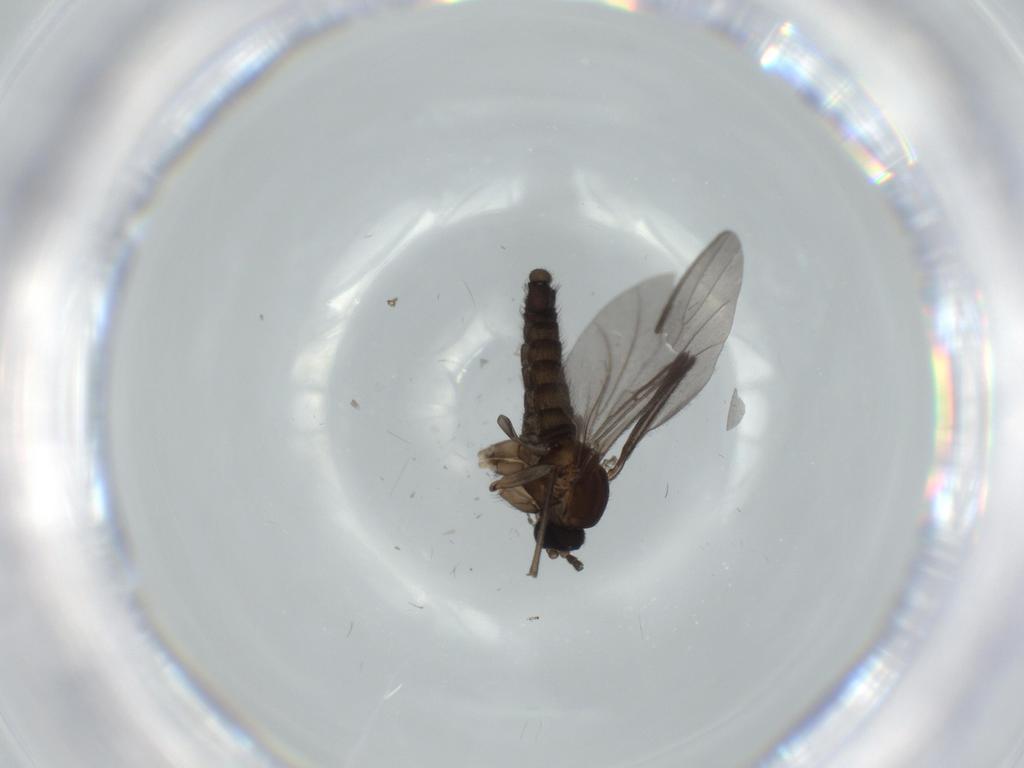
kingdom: Animalia
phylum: Arthropoda
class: Insecta
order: Diptera
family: Sciaridae
